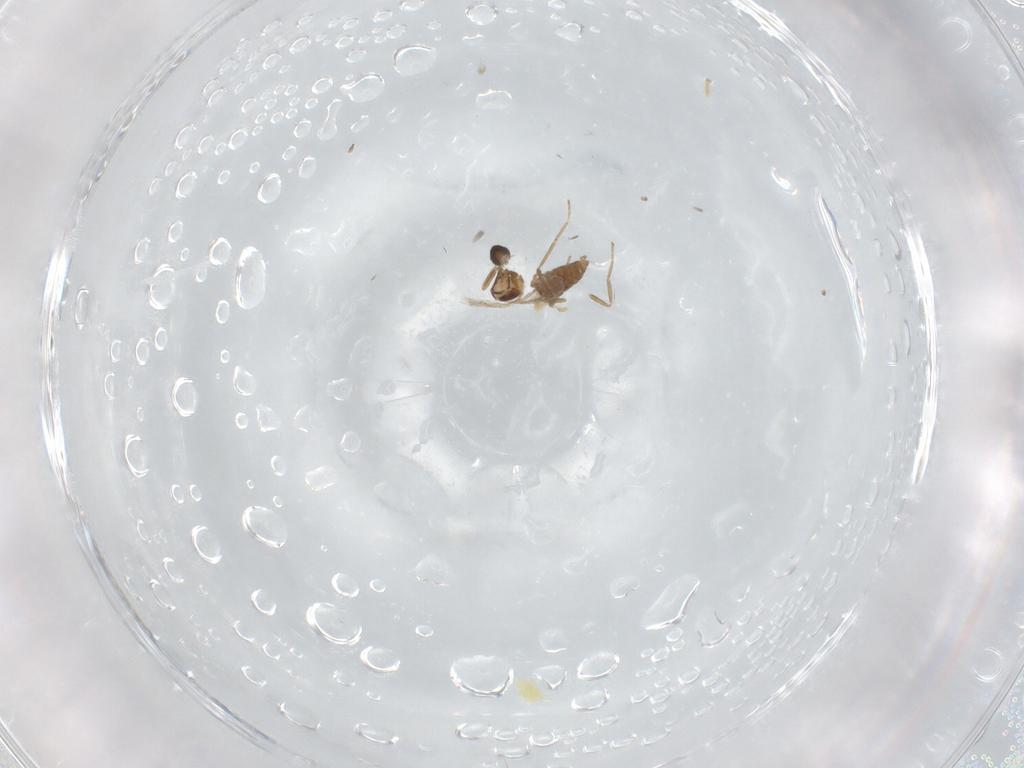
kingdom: Animalia
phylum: Arthropoda
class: Insecta
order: Diptera
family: Cecidomyiidae
